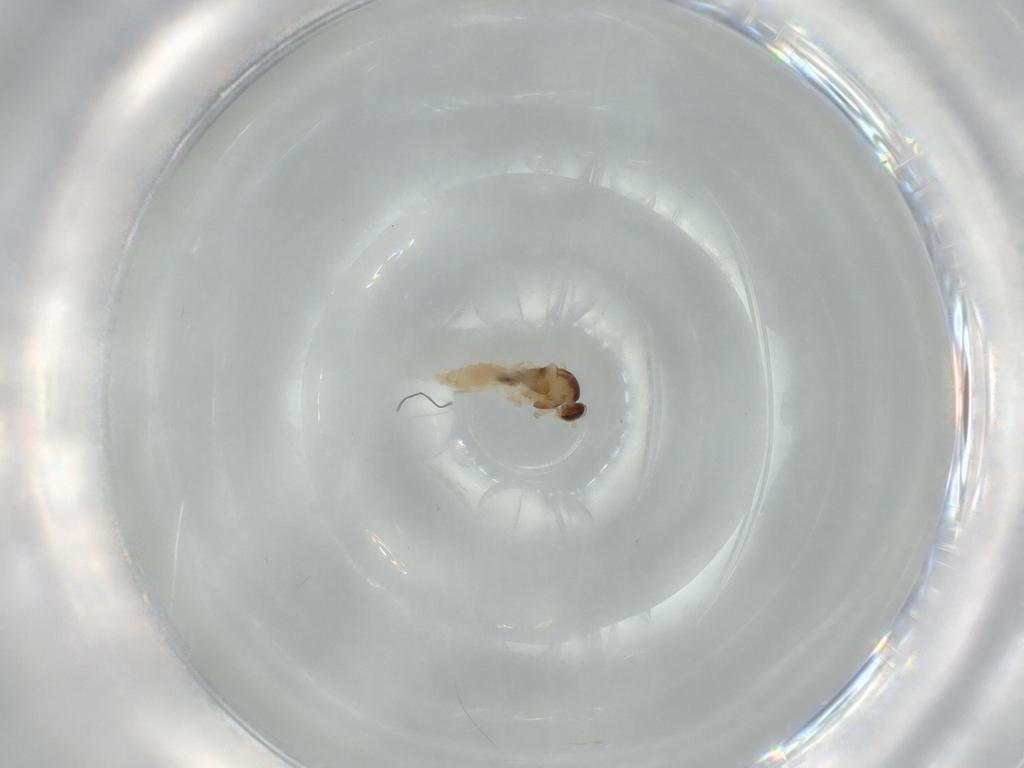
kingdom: Animalia
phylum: Arthropoda
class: Insecta
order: Diptera
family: Cecidomyiidae
